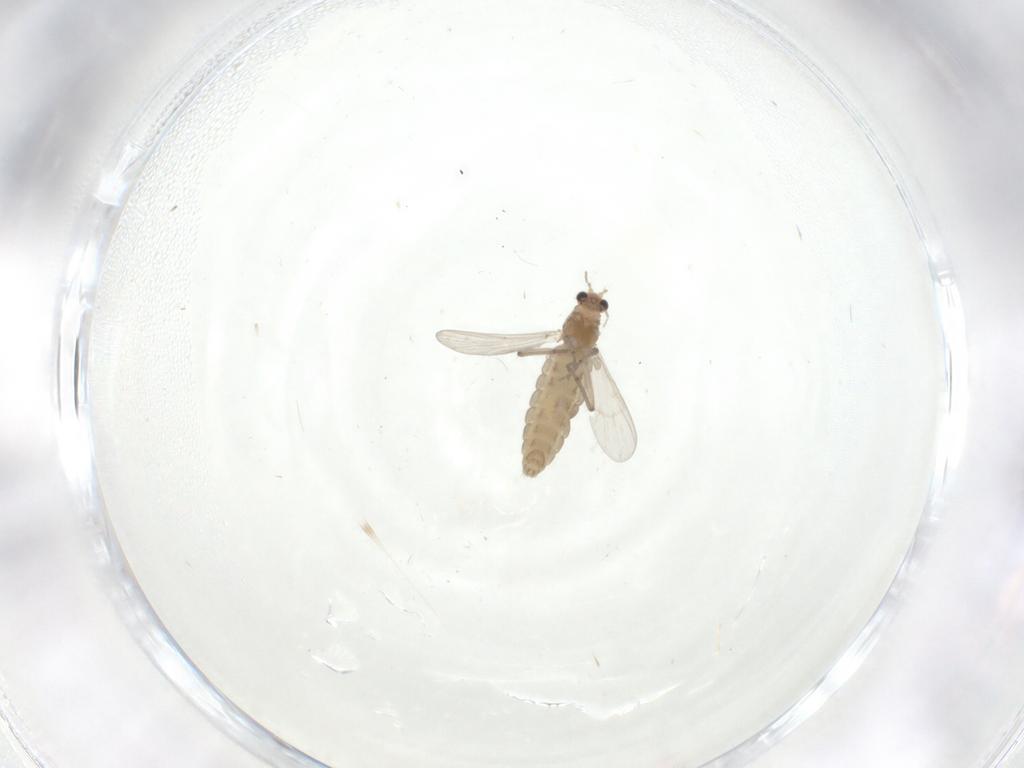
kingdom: Animalia
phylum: Arthropoda
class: Insecta
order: Diptera
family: Chironomidae
